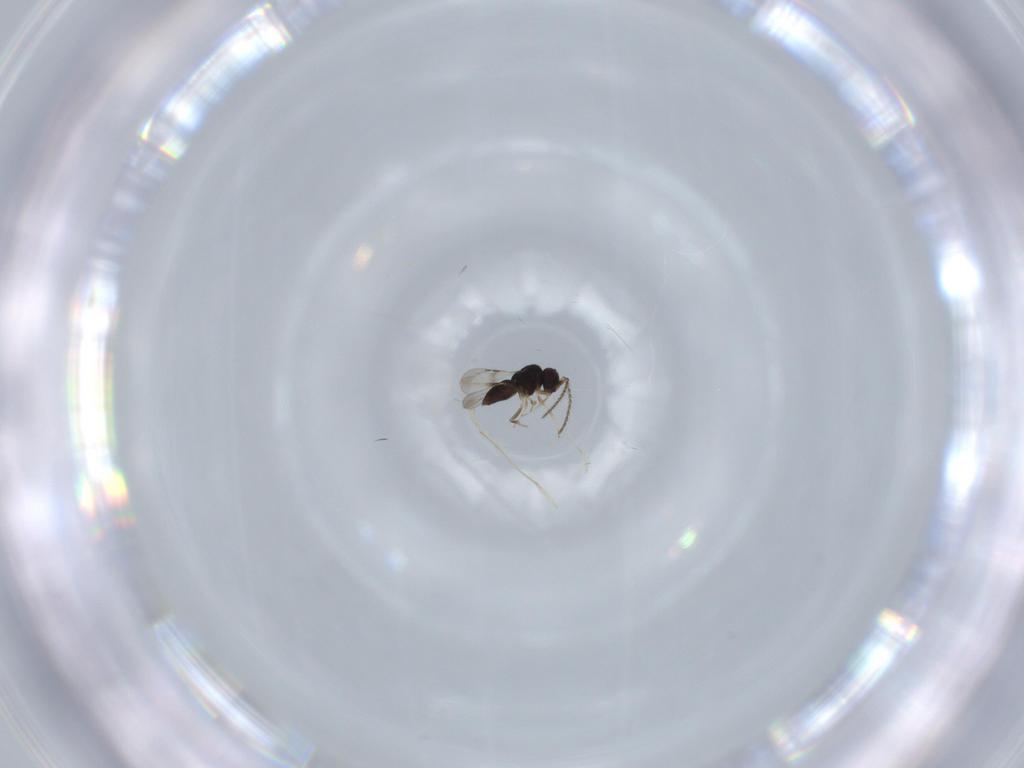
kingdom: Animalia
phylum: Arthropoda
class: Insecta
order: Hymenoptera
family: Ceraphronidae
